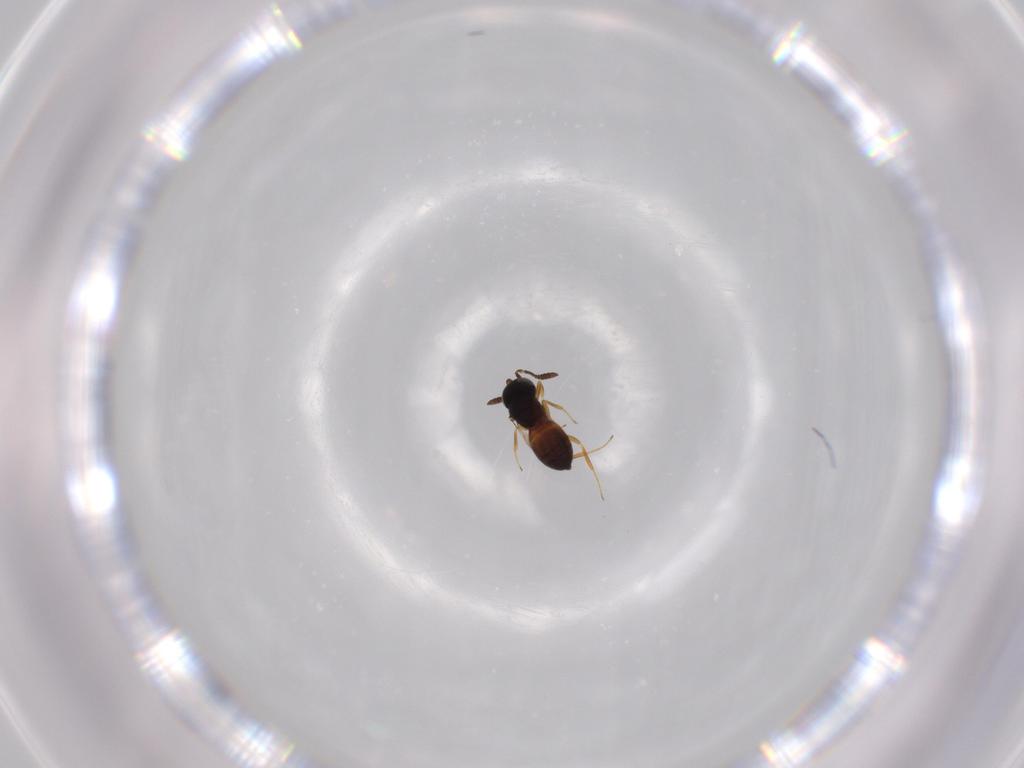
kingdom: Animalia
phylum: Arthropoda
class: Insecta
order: Hymenoptera
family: Scelionidae
